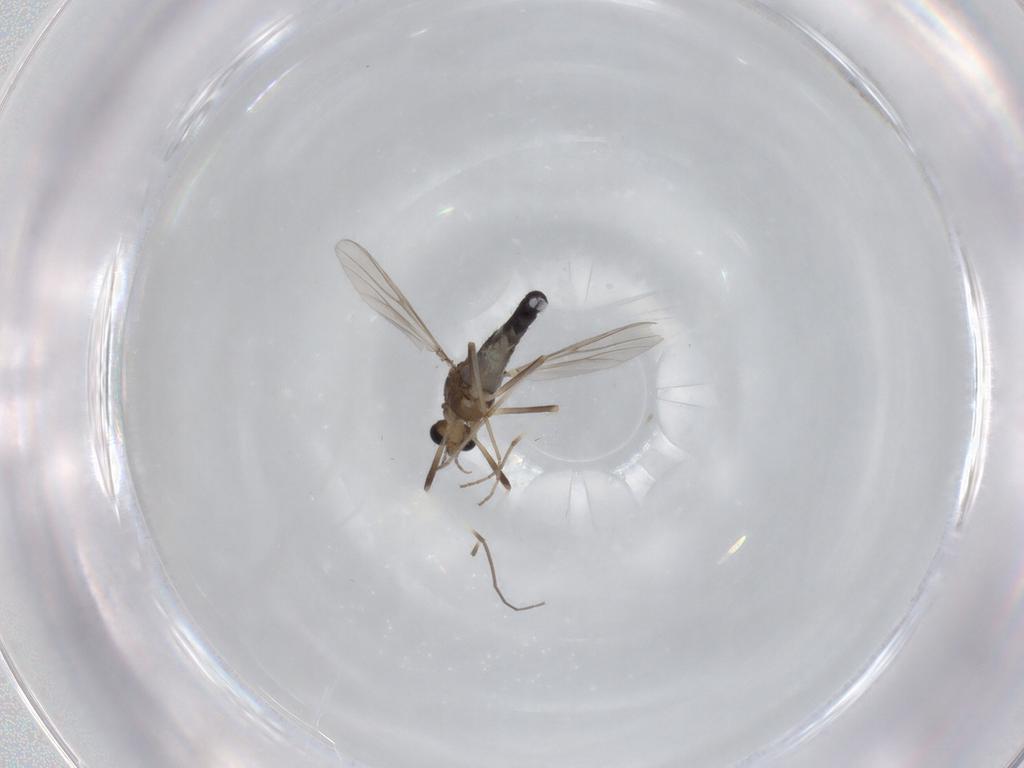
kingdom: Animalia
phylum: Arthropoda
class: Insecta
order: Diptera
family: Chironomidae
